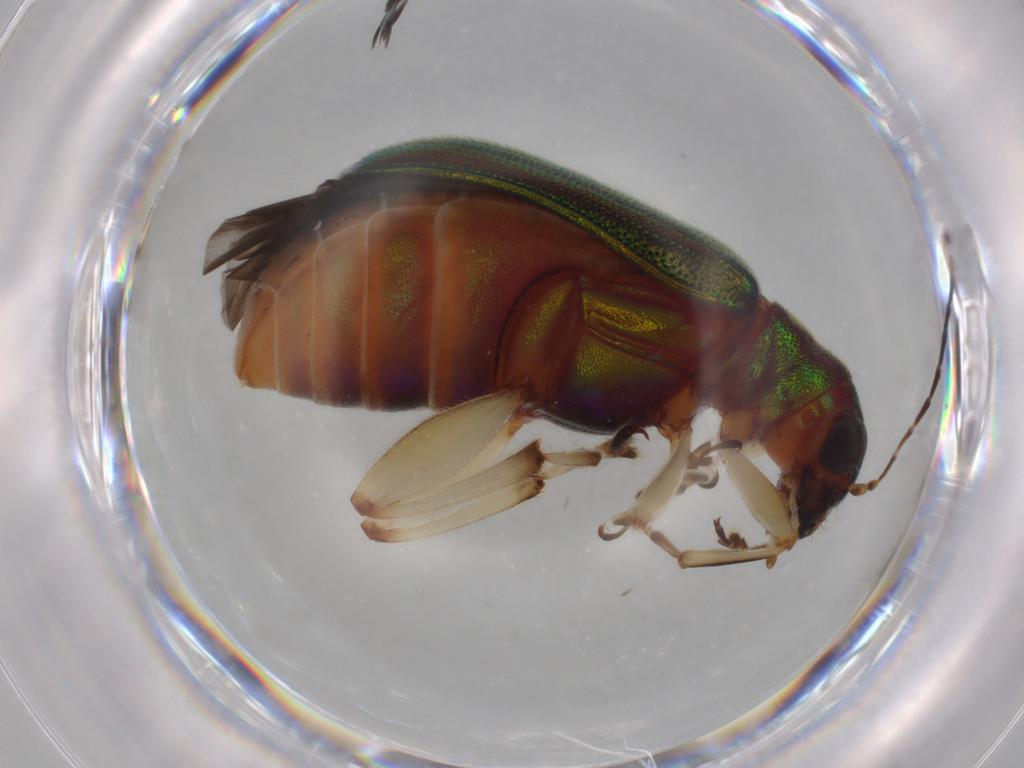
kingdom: Animalia
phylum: Arthropoda
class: Insecta
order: Coleoptera
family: Chrysomelidae
